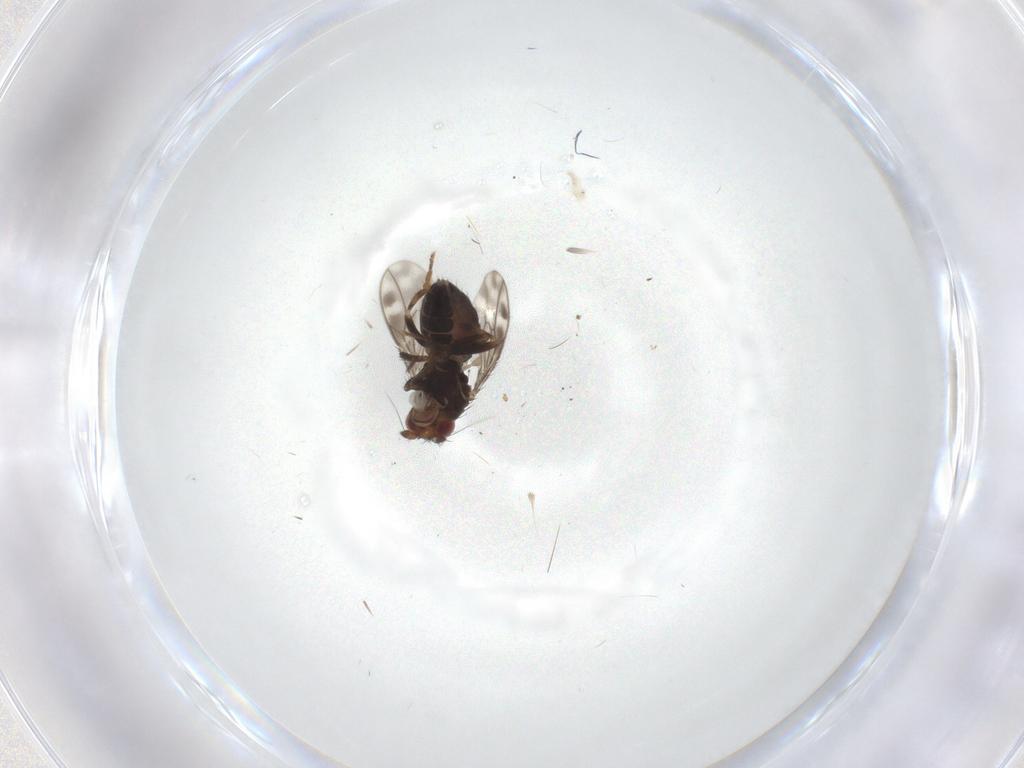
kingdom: Animalia
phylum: Arthropoda
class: Insecta
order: Diptera
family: Sphaeroceridae
